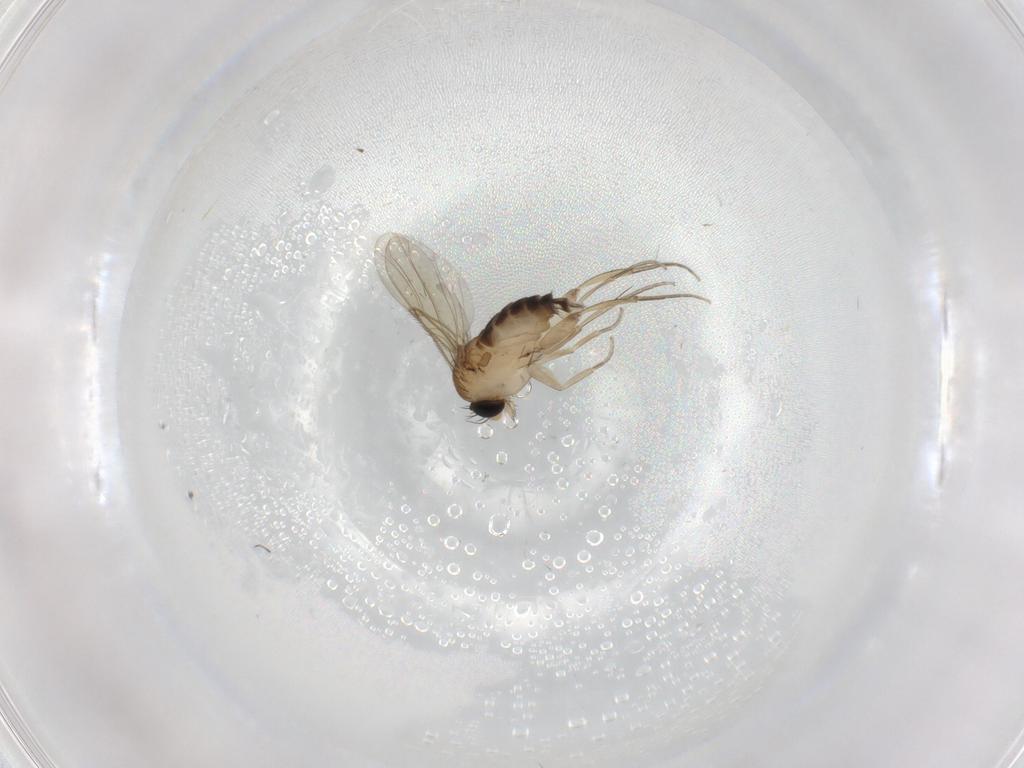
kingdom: Animalia
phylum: Arthropoda
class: Insecta
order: Diptera
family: Phoridae
